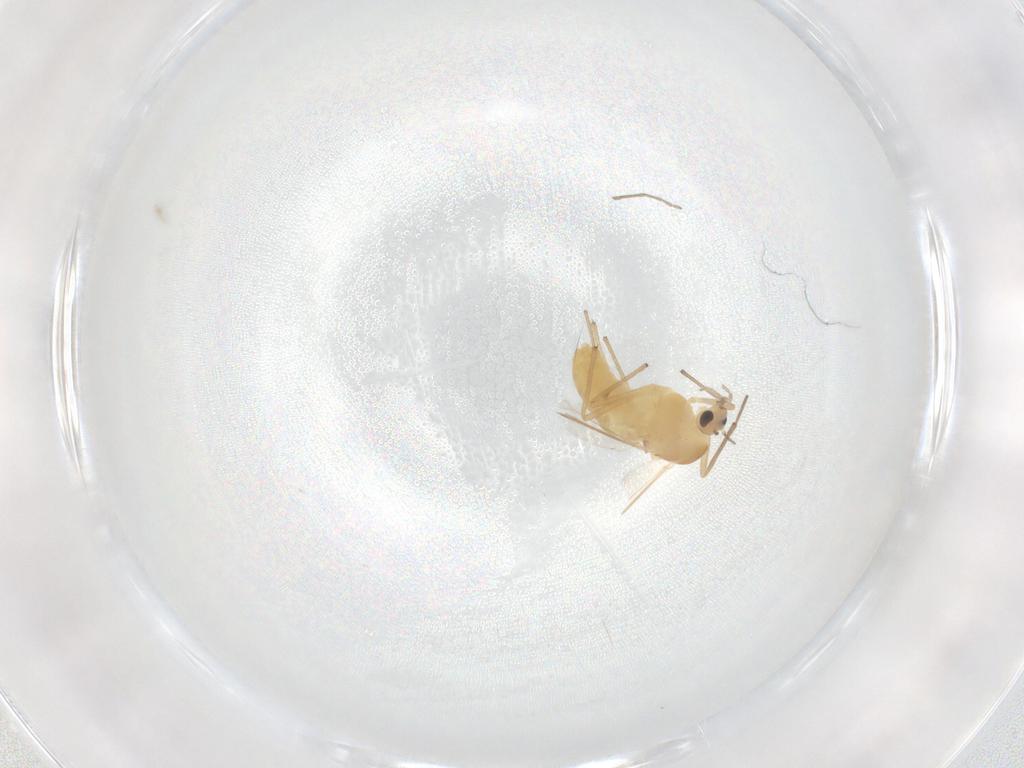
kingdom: Animalia
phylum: Arthropoda
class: Insecta
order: Diptera
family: Chironomidae
